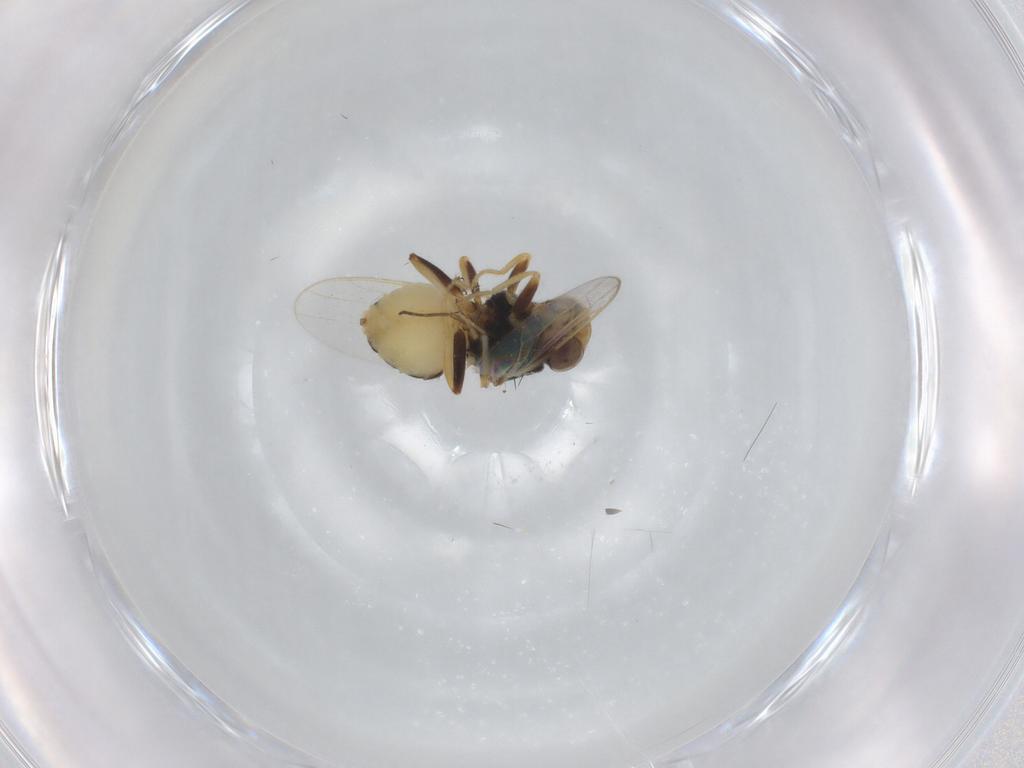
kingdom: Animalia
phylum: Arthropoda
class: Insecta
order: Diptera
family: Chloropidae
